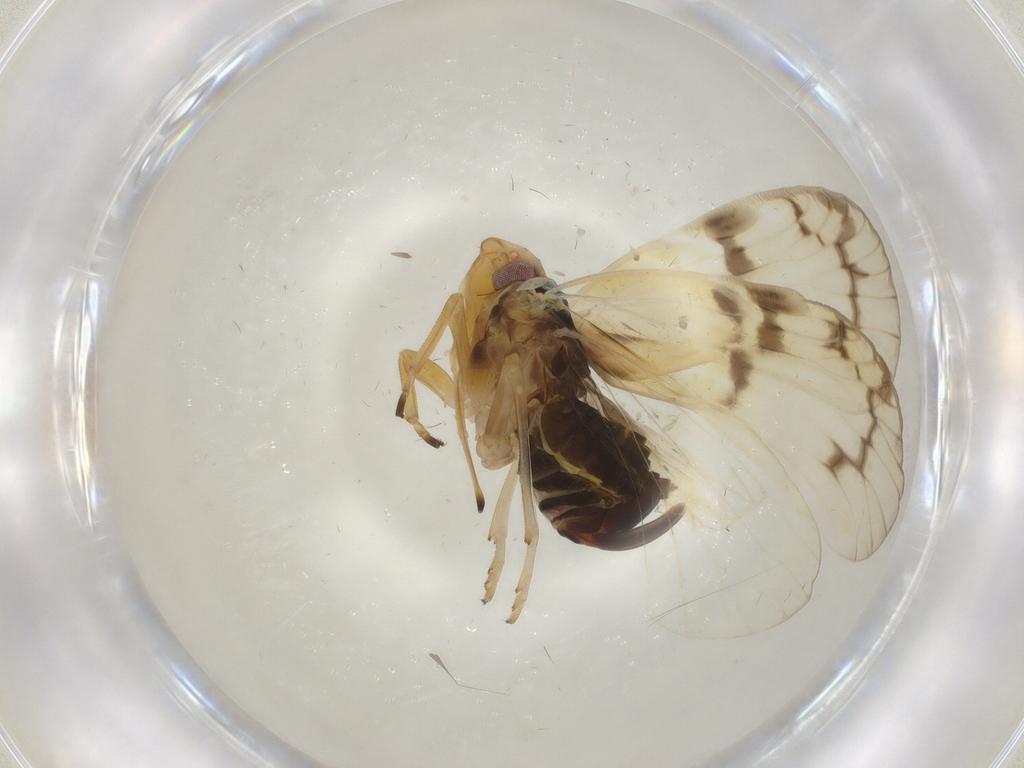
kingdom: Animalia
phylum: Arthropoda
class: Insecta
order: Hemiptera
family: Cixiidae
